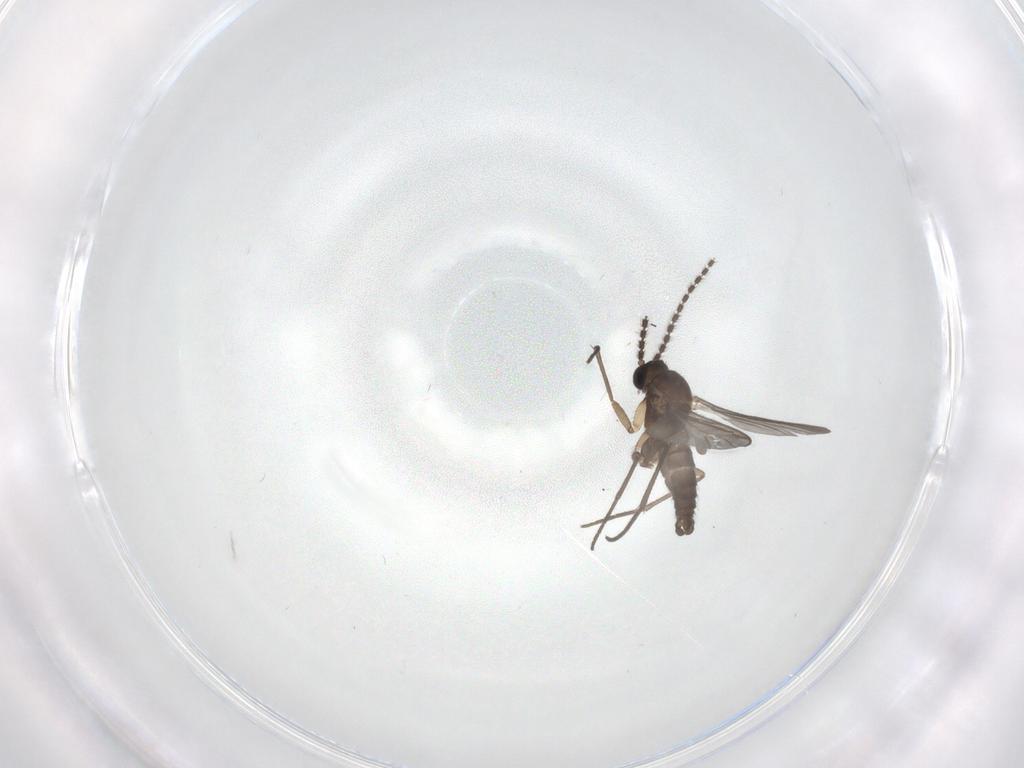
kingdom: Animalia
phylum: Arthropoda
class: Insecta
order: Diptera
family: Sciaridae
